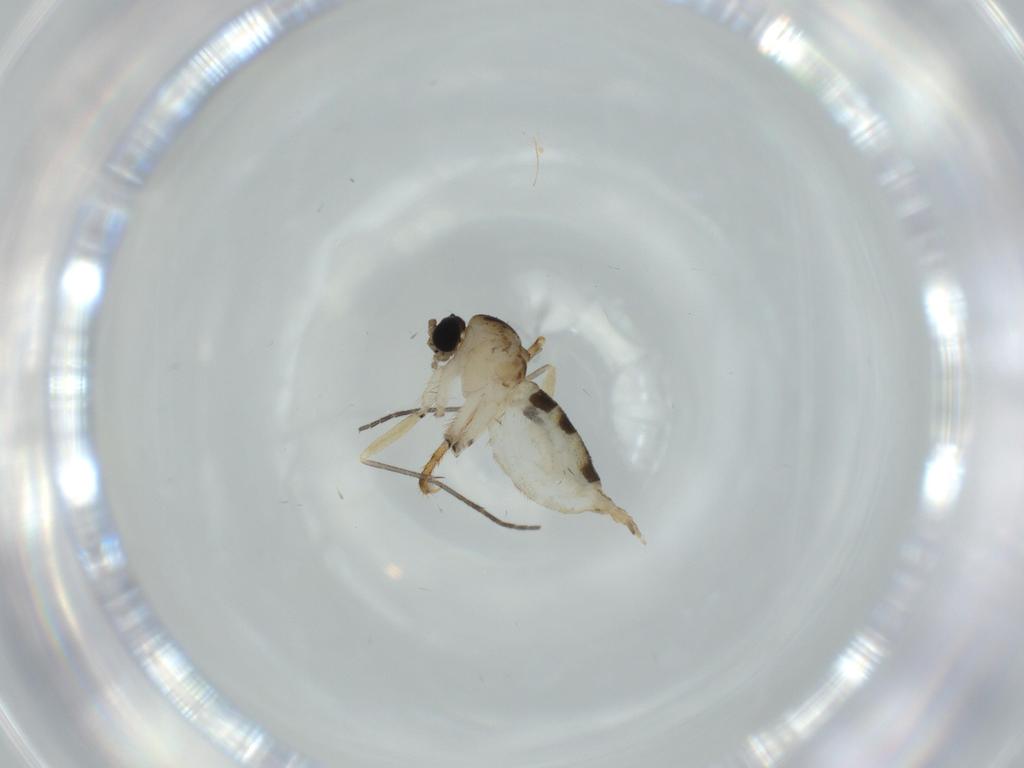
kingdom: Animalia
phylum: Arthropoda
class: Insecta
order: Diptera
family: Sciaridae
